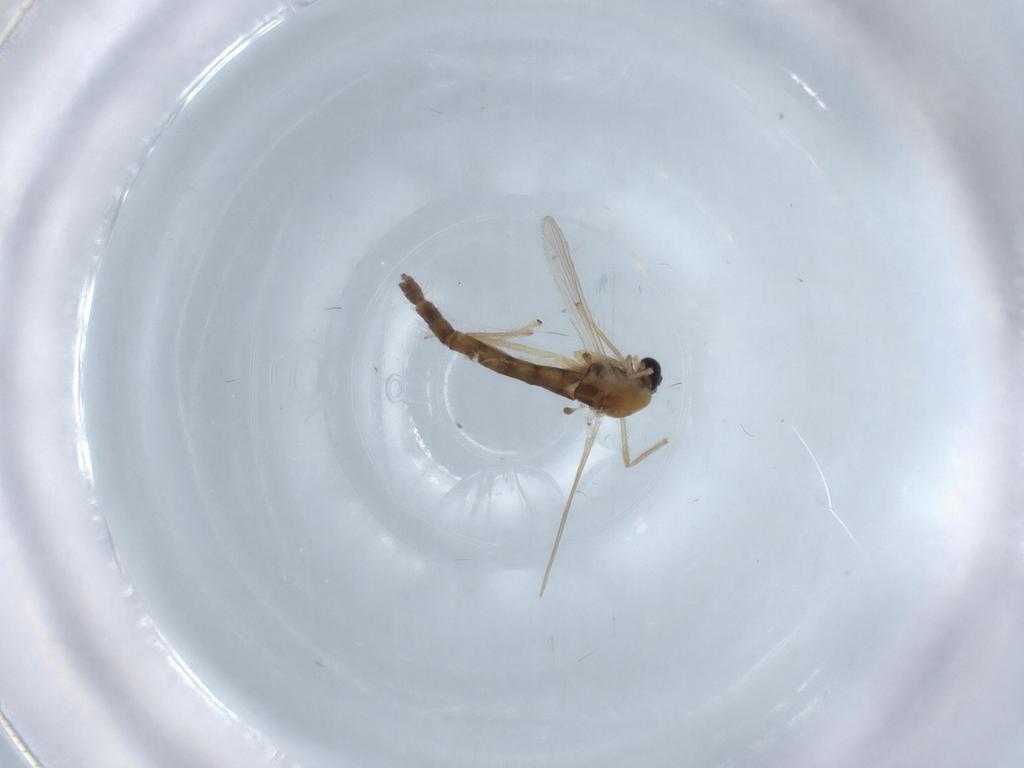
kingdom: Animalia
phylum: Arthropoda
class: Insecta
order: Diptera
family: Chironomidae
